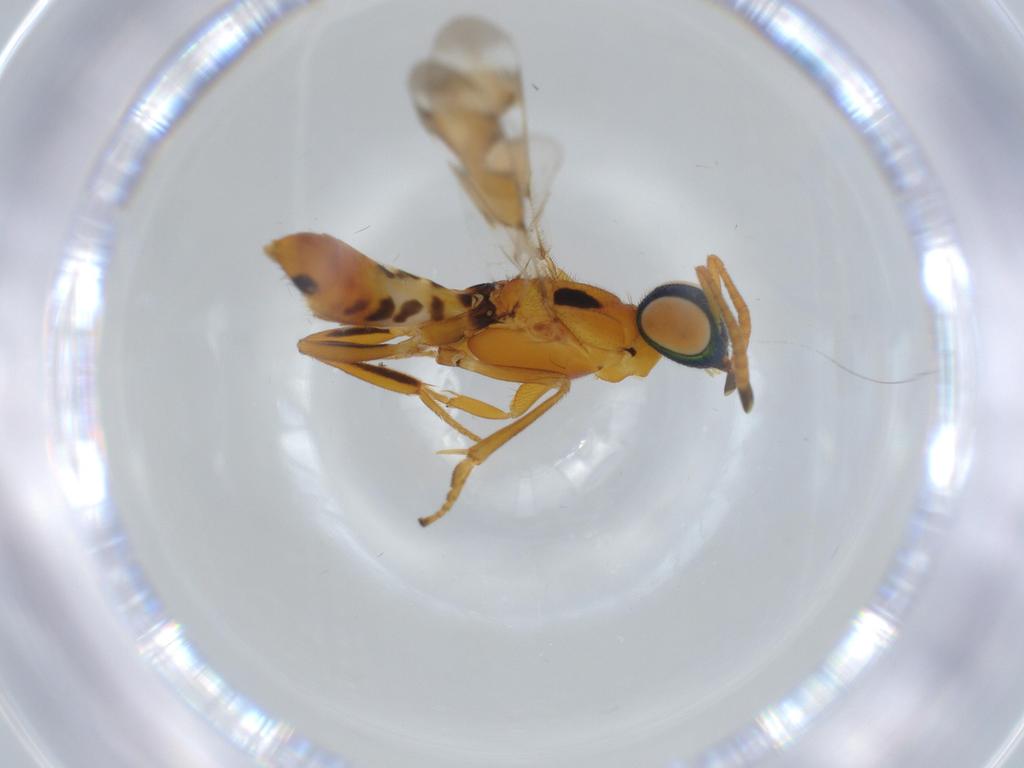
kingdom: Animalia
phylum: Arthropoda
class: Insecta
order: Hymenoptera
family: Eupelmidae
